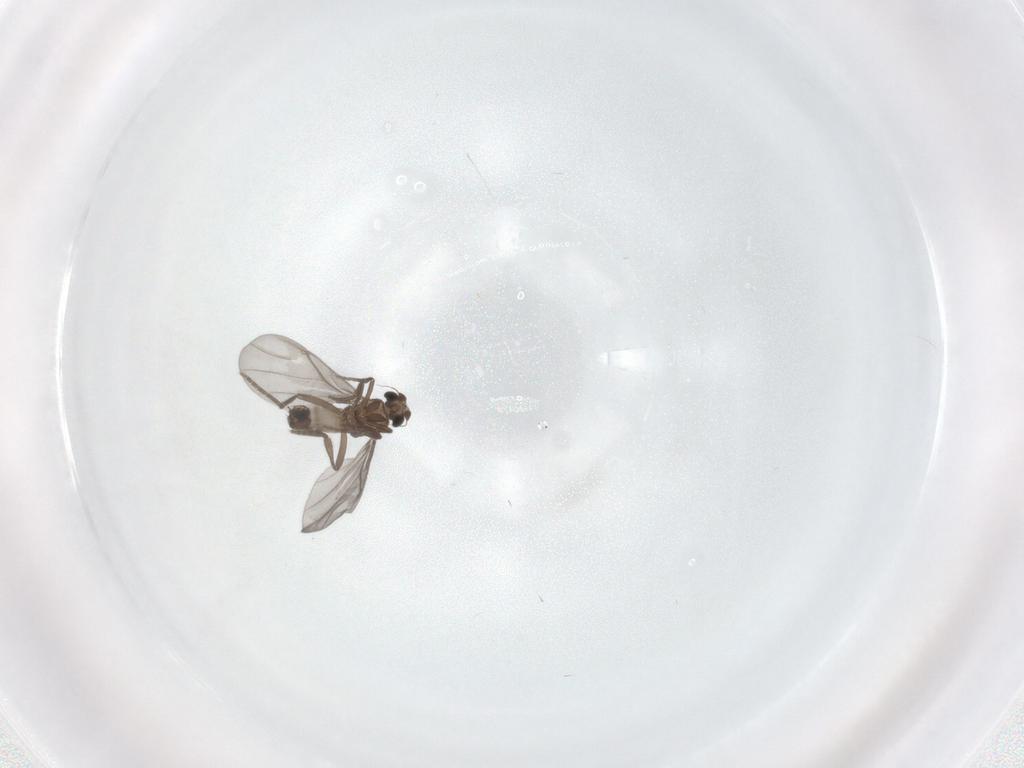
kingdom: Animalia
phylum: Arthropoda
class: Insecta
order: Diptera
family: Phoridae
